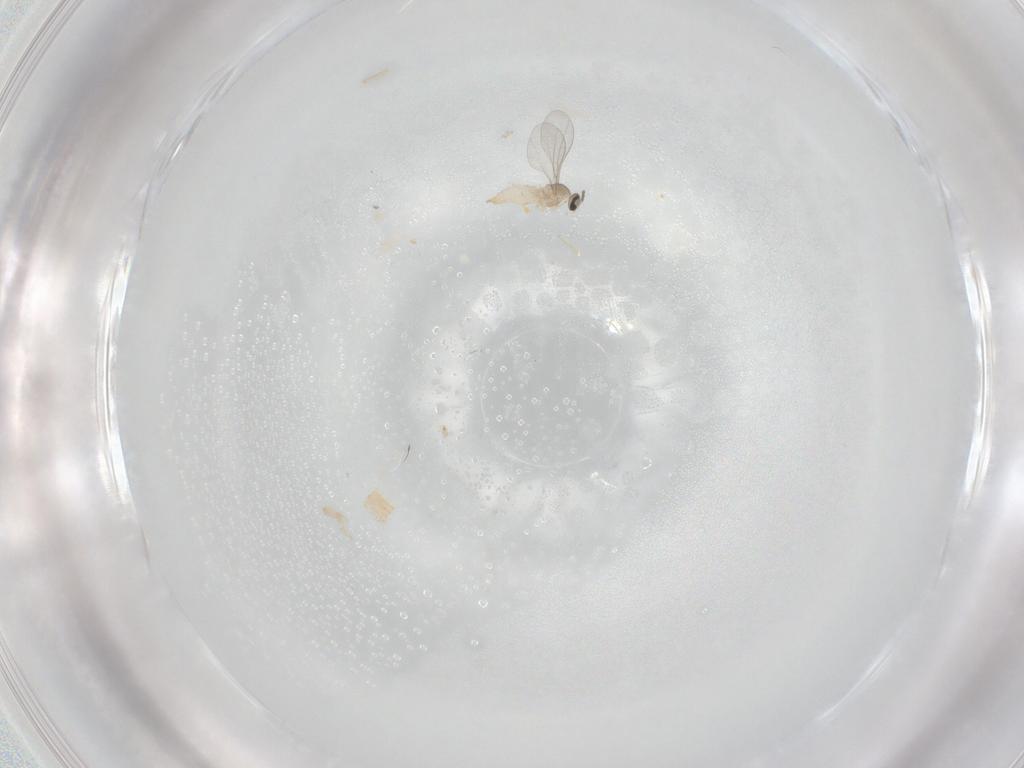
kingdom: Animalia
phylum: Arthropoda
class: Insecta
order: Diptera
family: Cecidomyiidae
